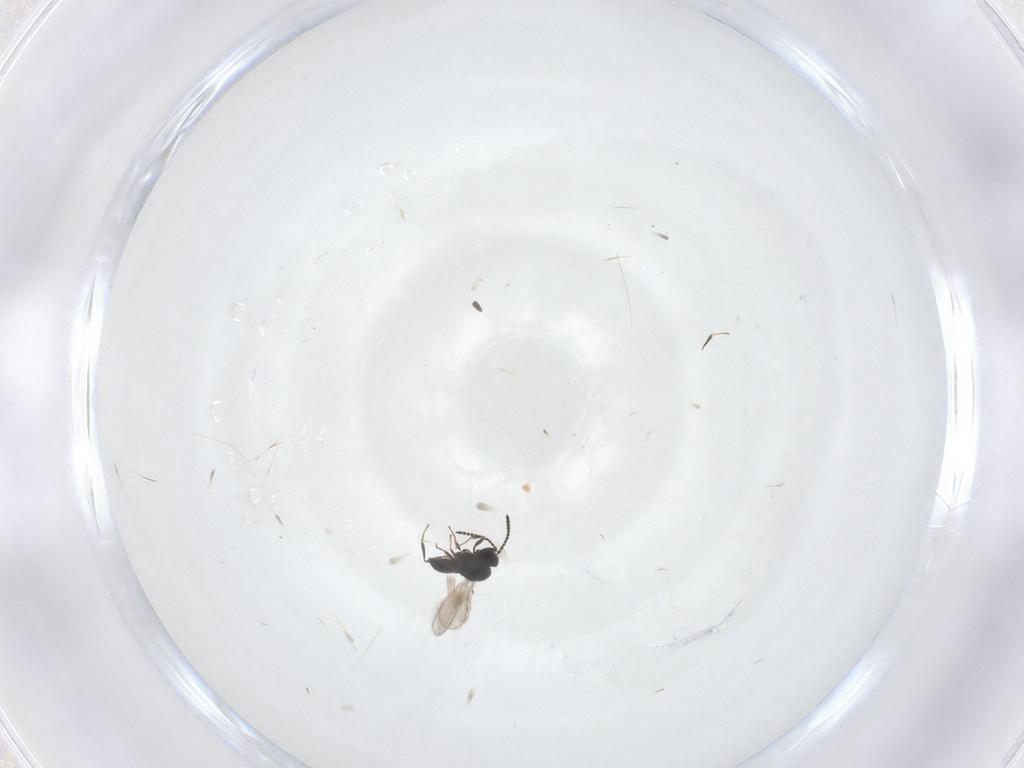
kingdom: Animalia
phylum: Arthropoda
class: Insecta
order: Hymenoptera
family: Scelionidae
